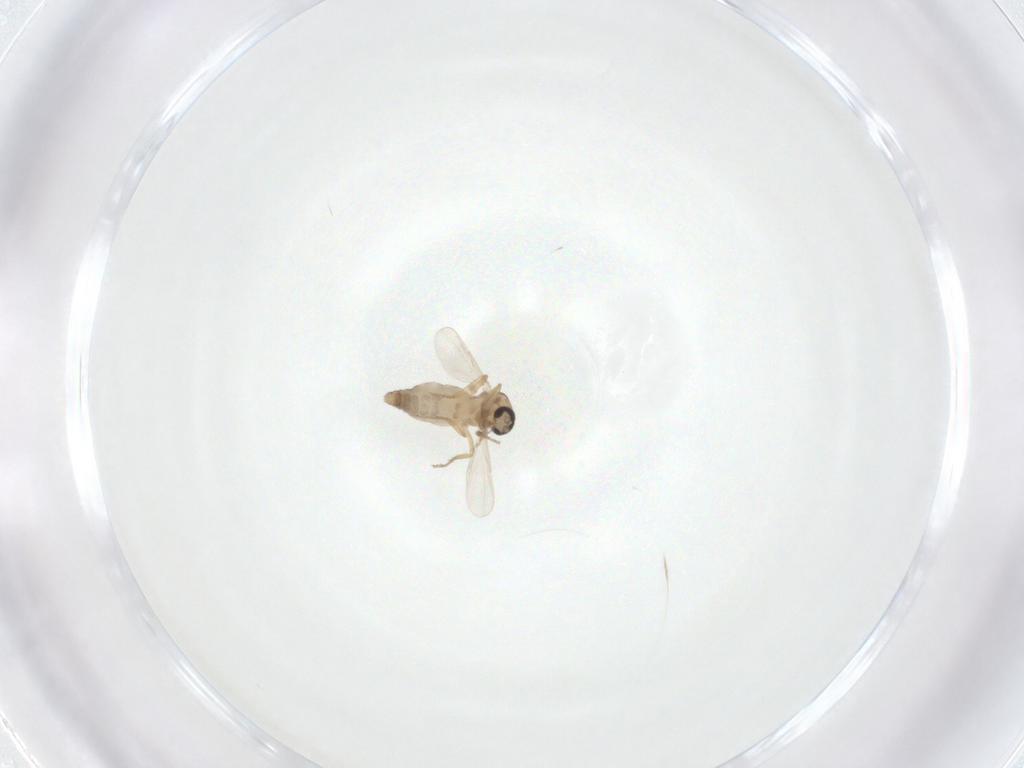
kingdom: Animalia
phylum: Arthropoda
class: Insecta
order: Diptera
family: Ceratopogonidae
